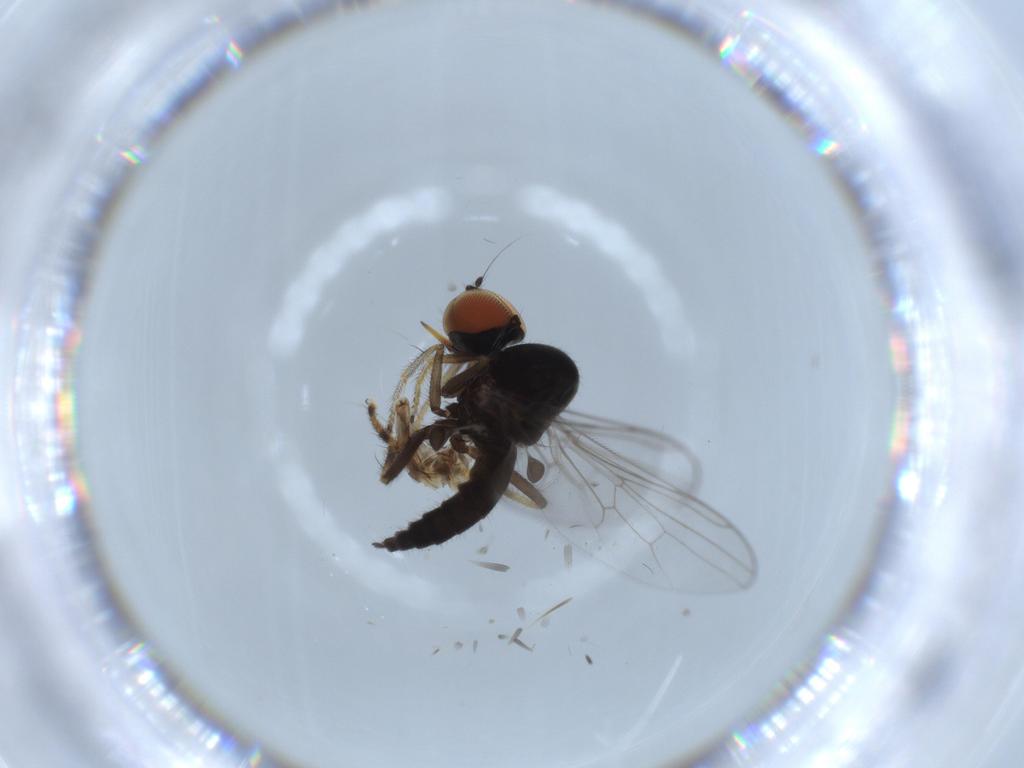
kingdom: Animalia
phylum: Arthropoda
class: Insecta
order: Diptera
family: Hybotidae
